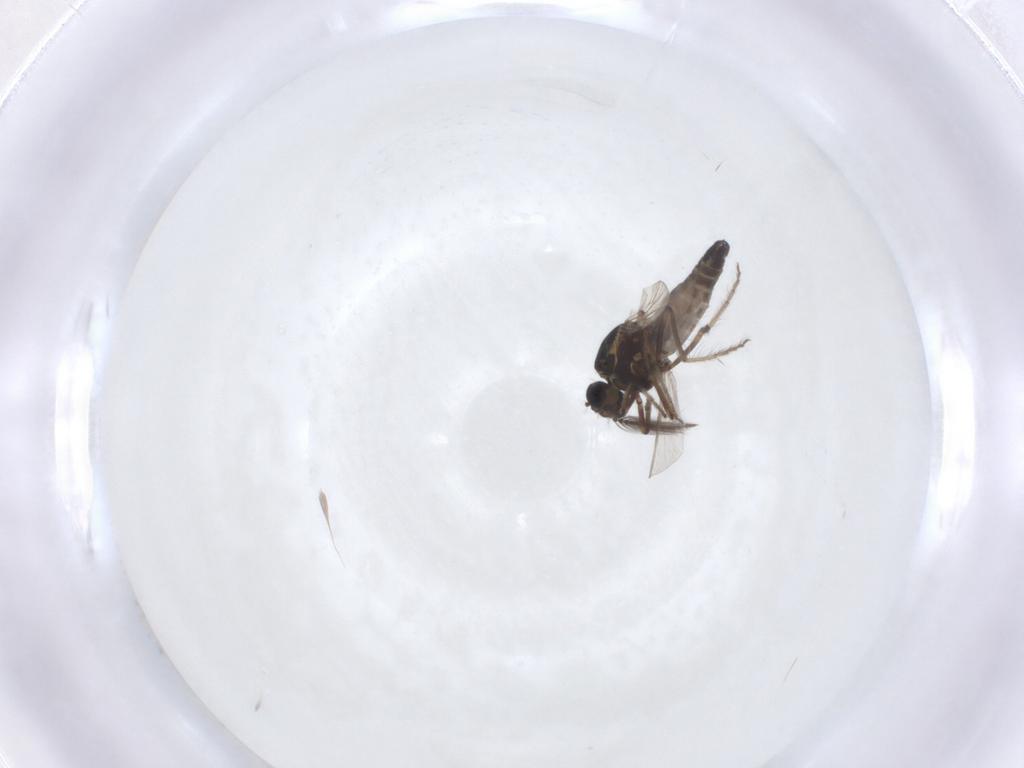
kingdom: Animalia
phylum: Arthropoda
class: Insecta
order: Diptera
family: Ceratopogonidae
